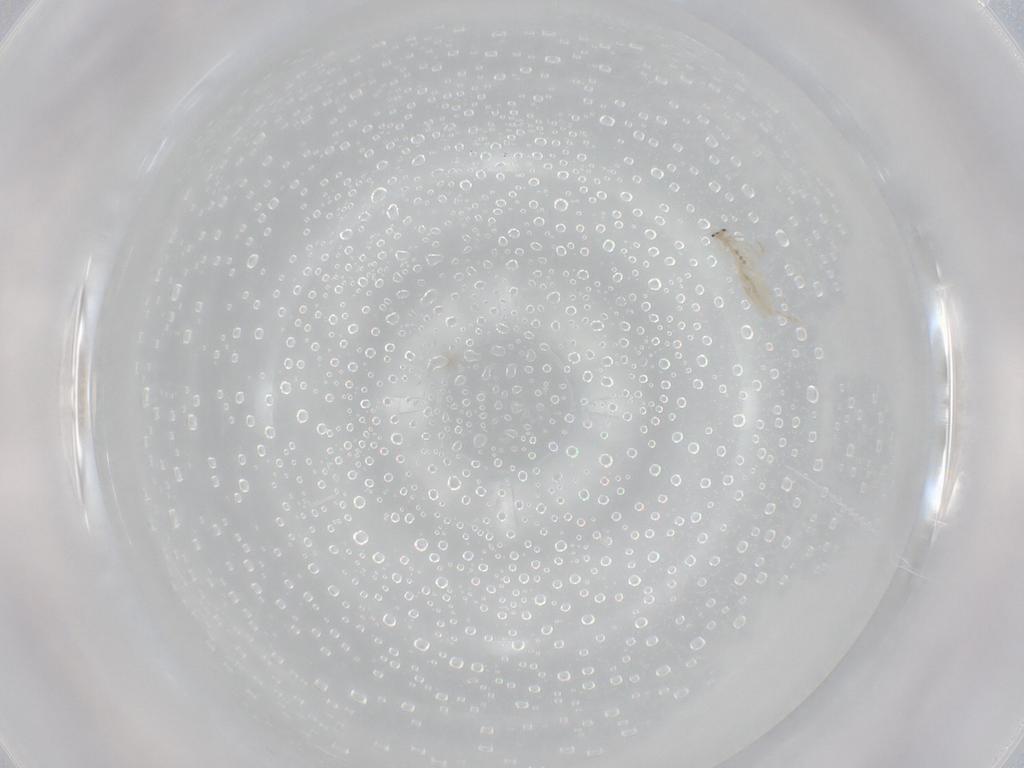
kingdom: Animalia
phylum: Arthropoda
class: Collembola
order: Entomobryomorpha
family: Entomobryidae
